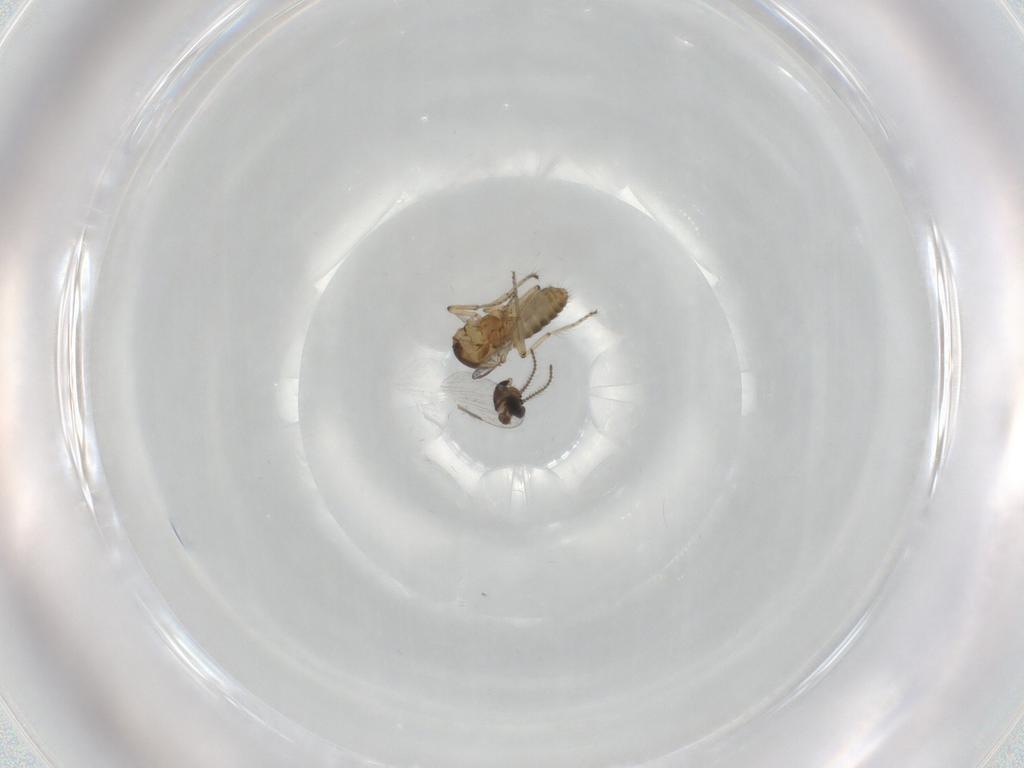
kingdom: Animalia
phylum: Arthropoda
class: Insecta
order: Diptera
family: Ceratopogonidae
